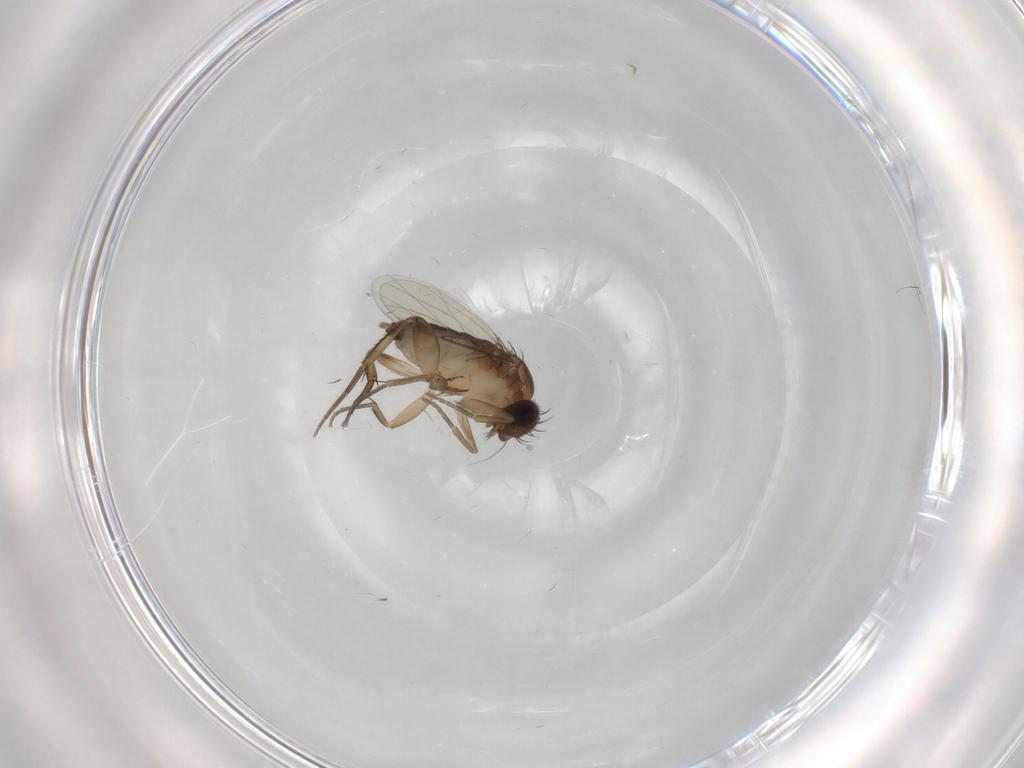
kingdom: Animalia
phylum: Arthropoda
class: Insecta
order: Diptera
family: Phoridae
